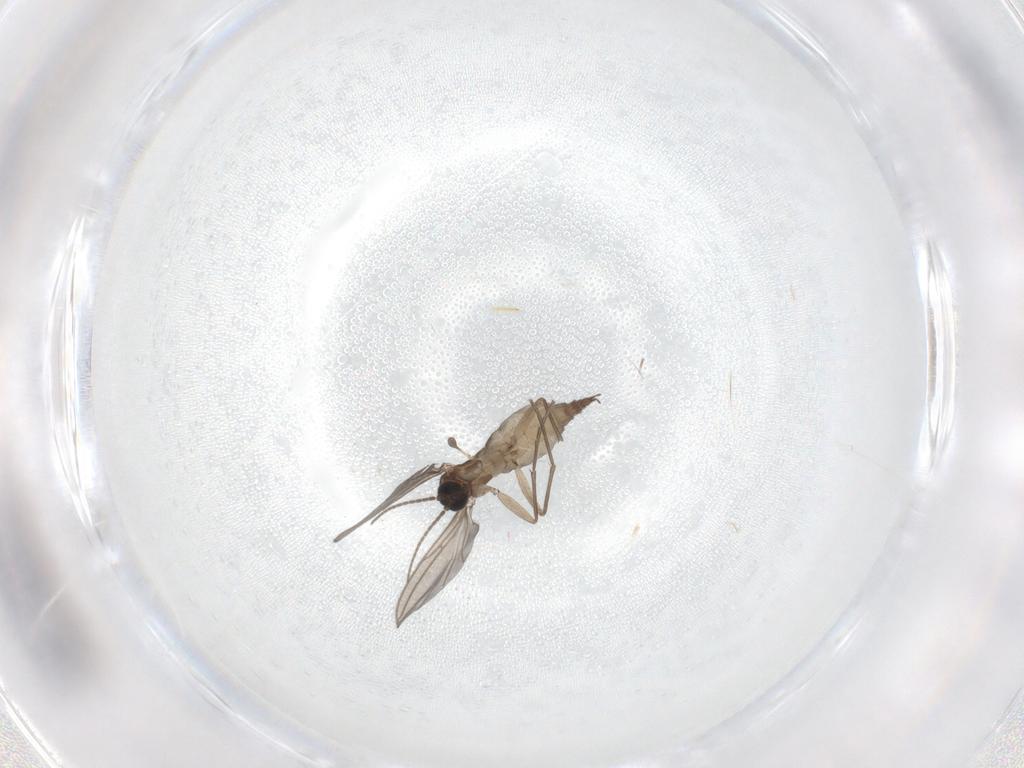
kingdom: Animalia
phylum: Arthropoda
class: Insecta
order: Diptera
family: Sciaridae
